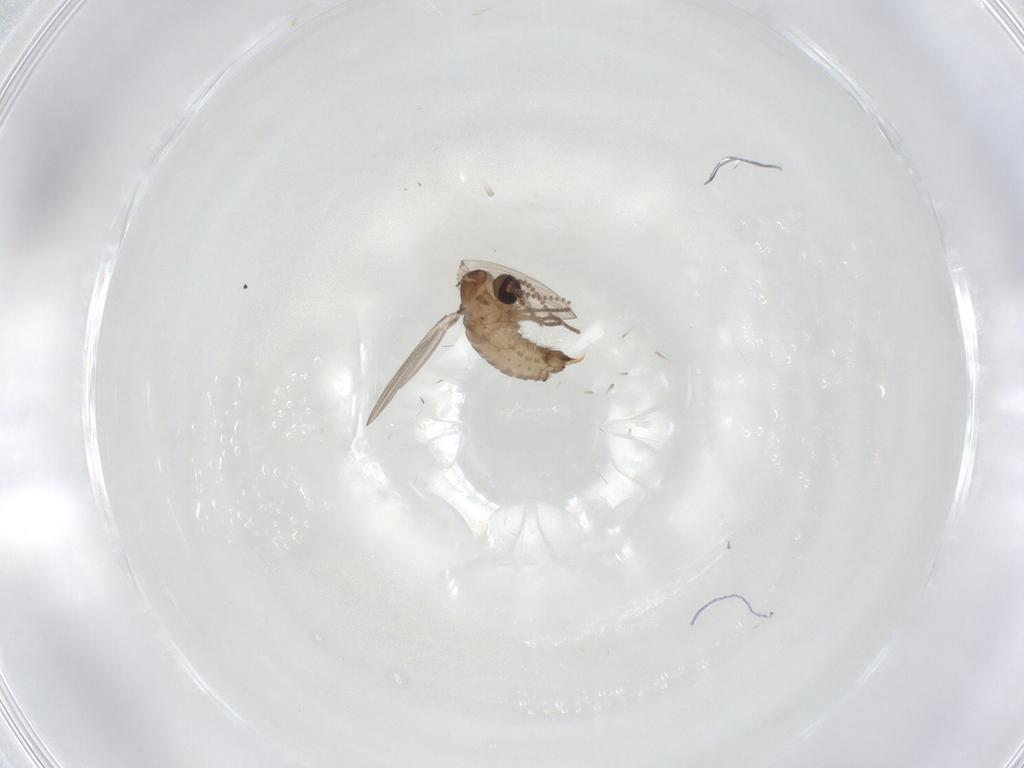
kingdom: Animalia
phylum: Arthropoda
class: Insecta
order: Diptera
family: Psychodidae
